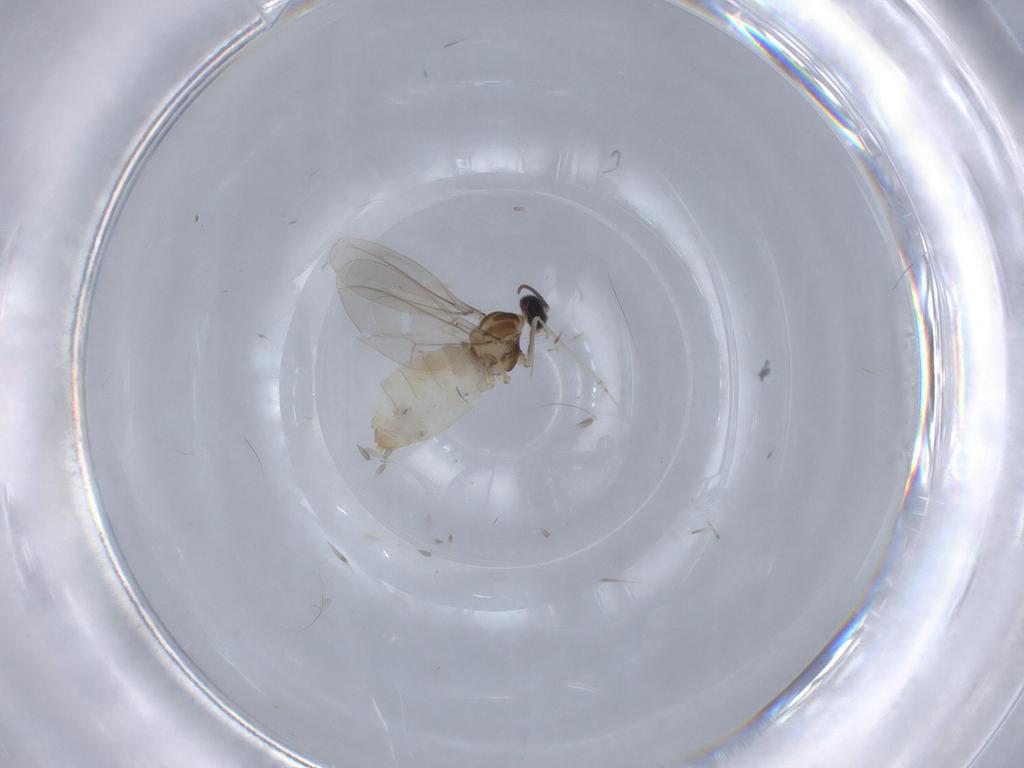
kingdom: Animalia
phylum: Arthropoda
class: Insecta
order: Diptera
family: Cecidomyiidae
